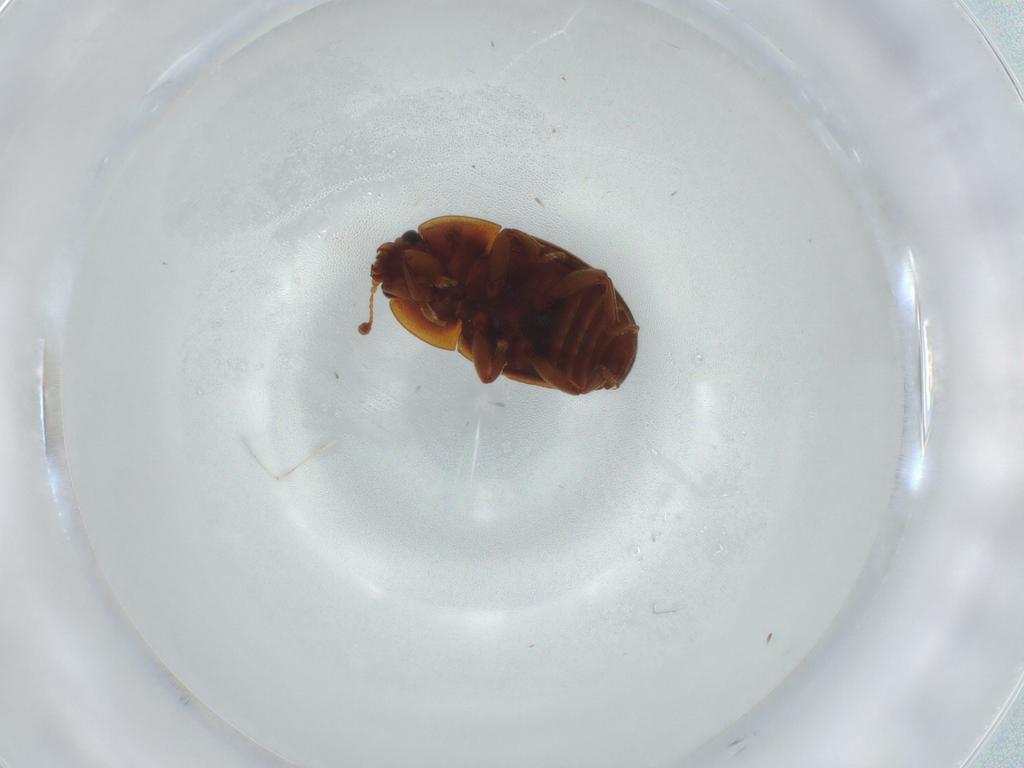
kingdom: Animalia
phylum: Arthropoda
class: Insecta
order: Coleoptera
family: Nitidulidae
